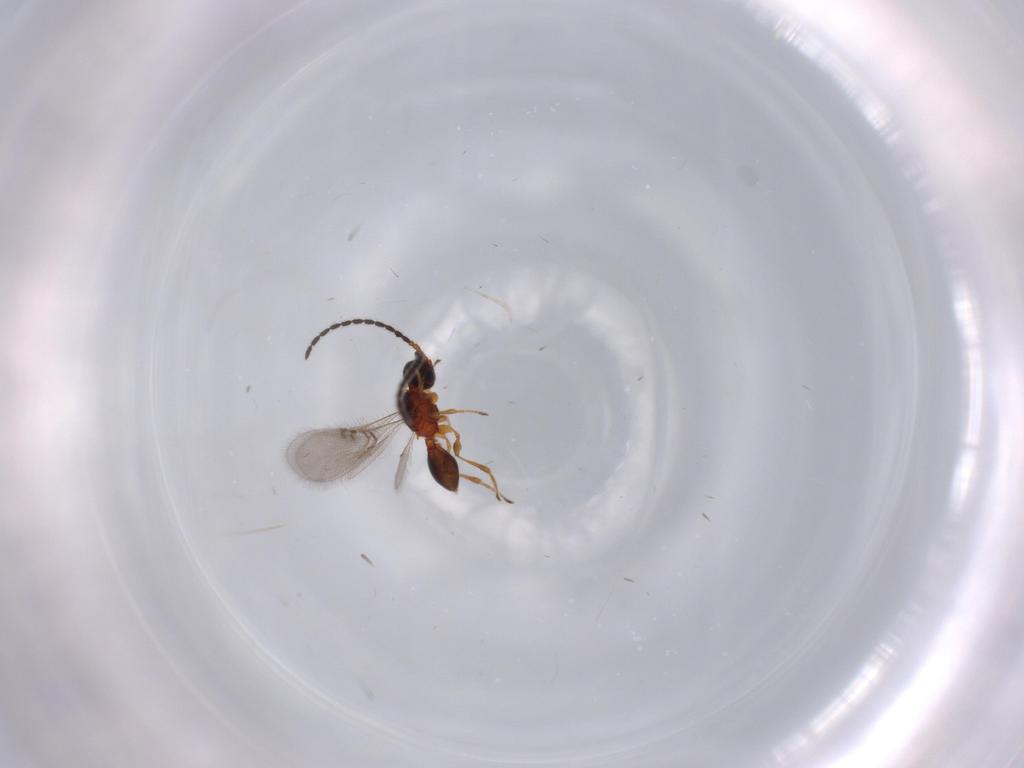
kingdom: Animalia
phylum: Arthropoda
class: Insecta
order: Hymenoptera
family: Diapriidae
